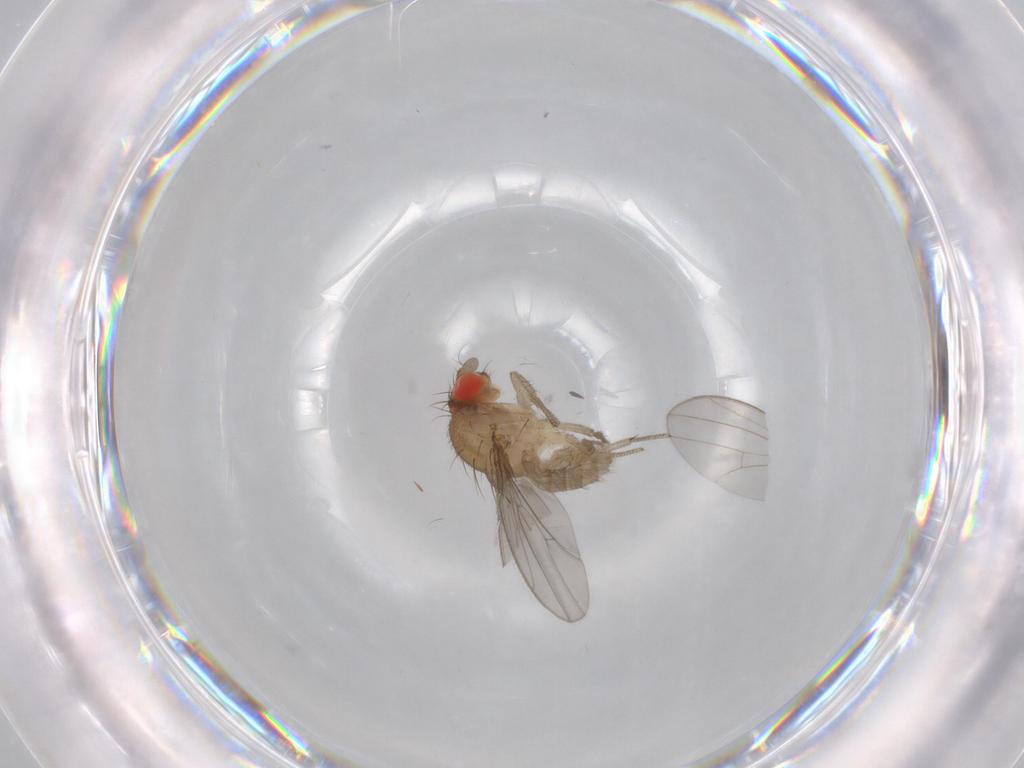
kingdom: Animalia
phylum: Arthropoda
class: Insecta
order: Diptera
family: Drosophilidae
